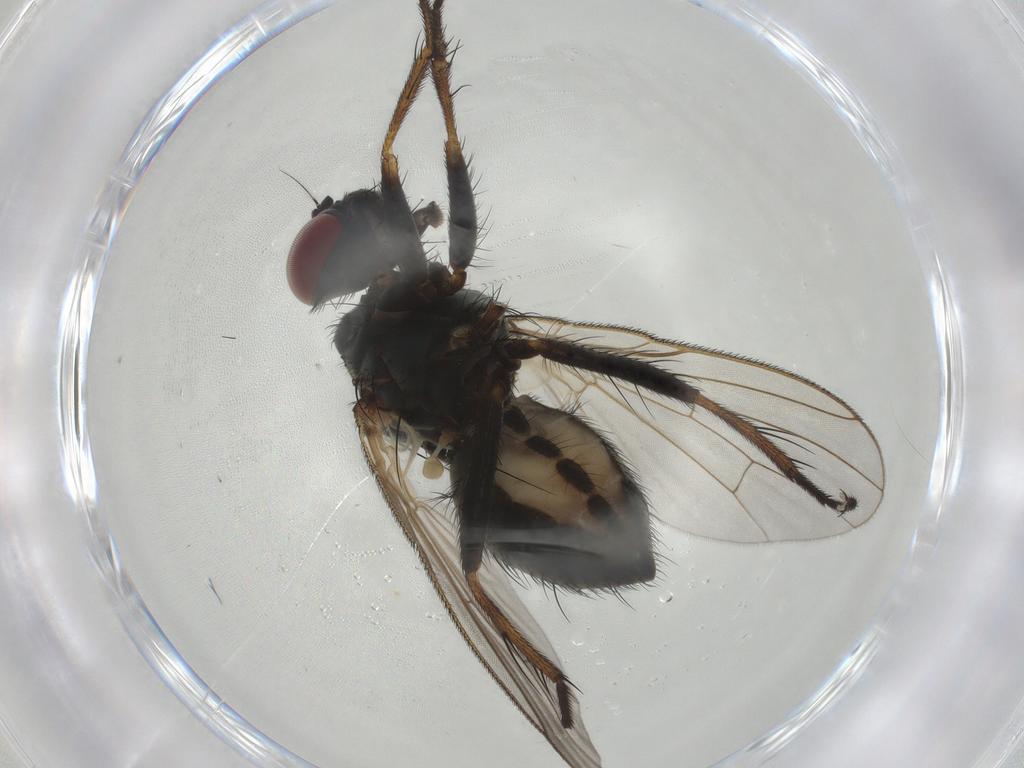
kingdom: Animalia
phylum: Arthropoda
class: Insecta
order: Diptera
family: Muscidae
